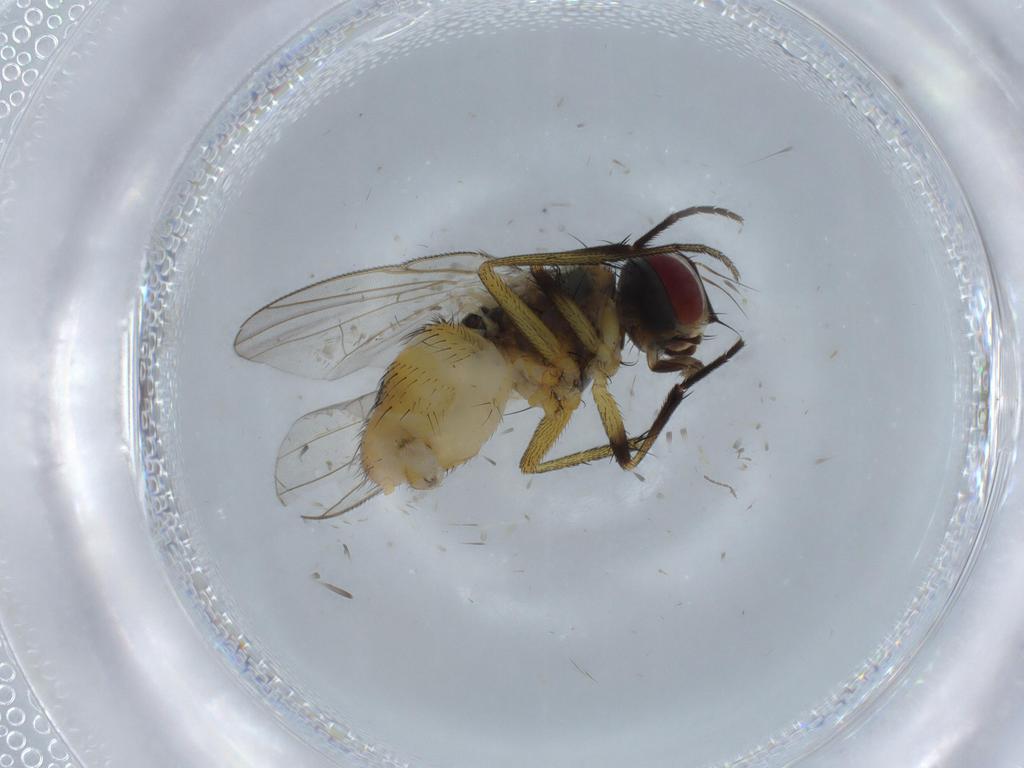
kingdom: Animalia
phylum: Arthropoda
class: Insecta
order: Diptera
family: Muscidae
